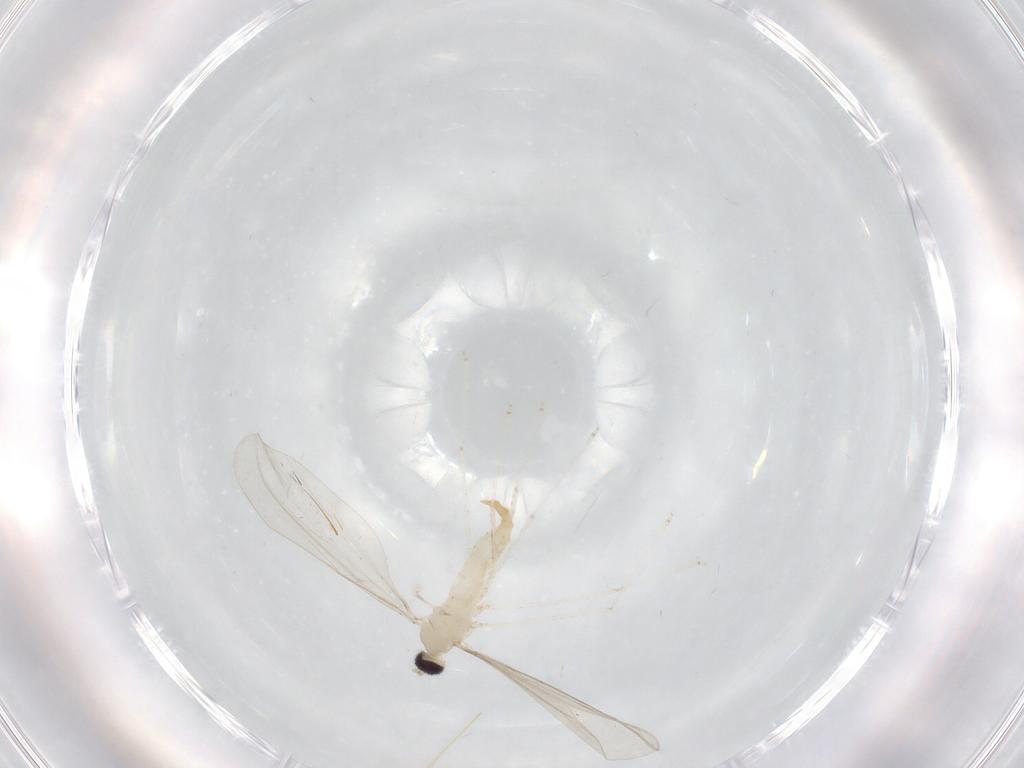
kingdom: Animalia
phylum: Arthropoda
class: Insecta
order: Diptera
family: Cecidomyiidae
